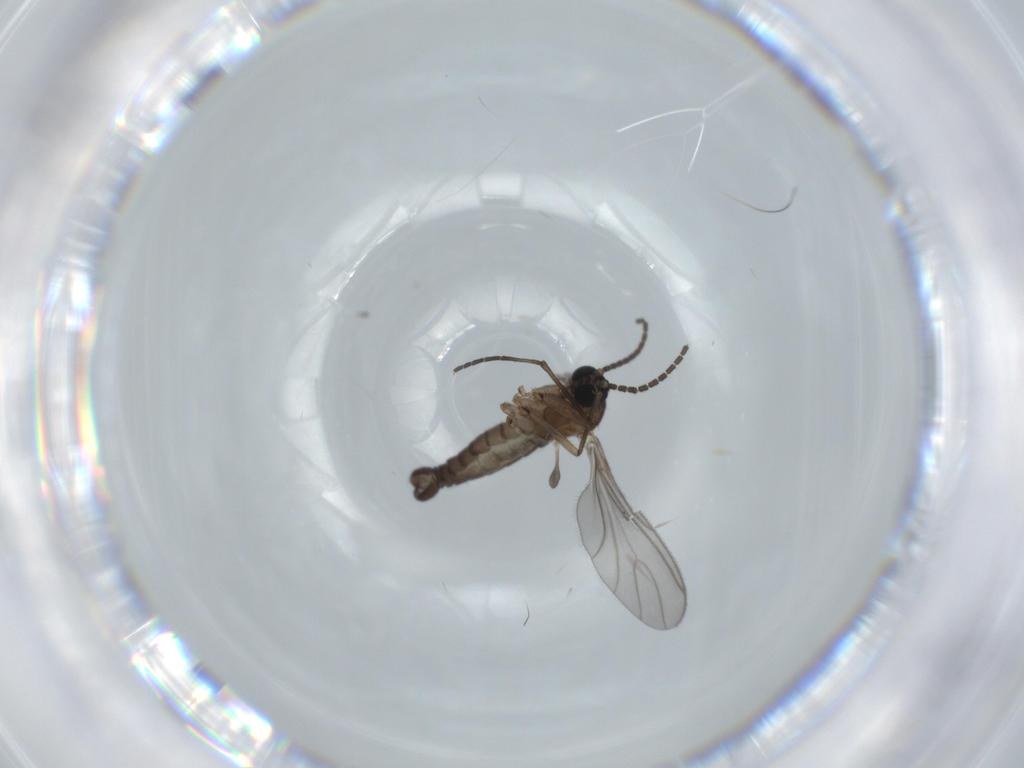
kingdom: Animalia
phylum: Arthropoda
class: Insecta
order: Diptera
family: Sciaridae
